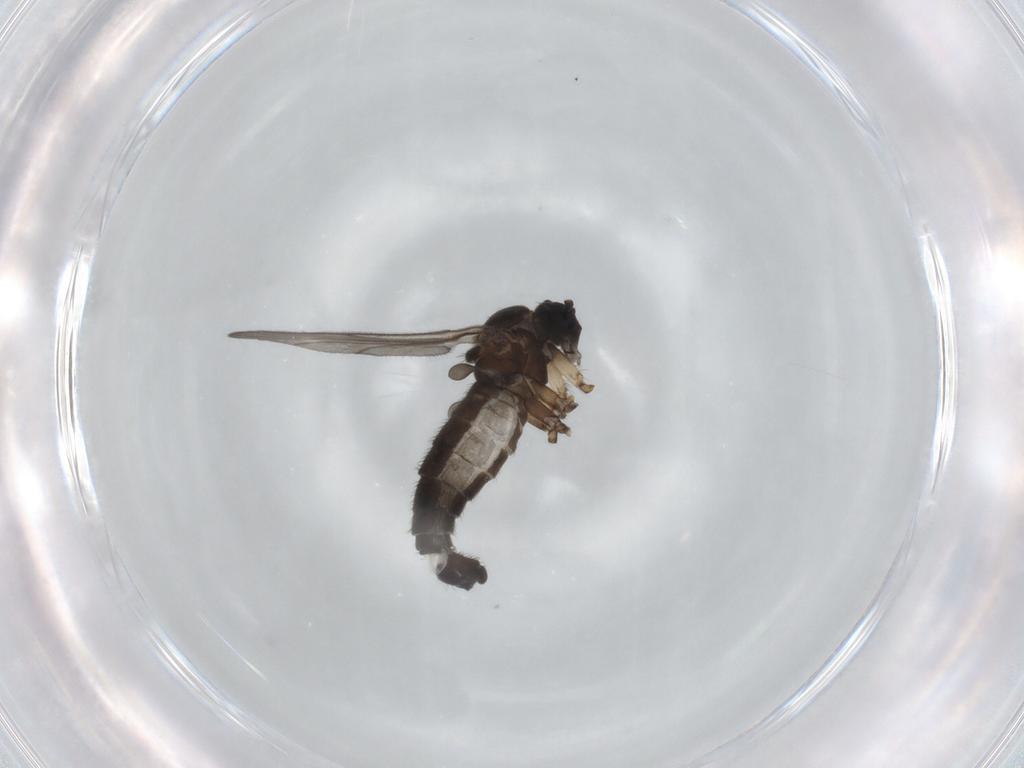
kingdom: Animalia
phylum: Arthropoda
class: Insecta
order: Diptera
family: Sciaridae
